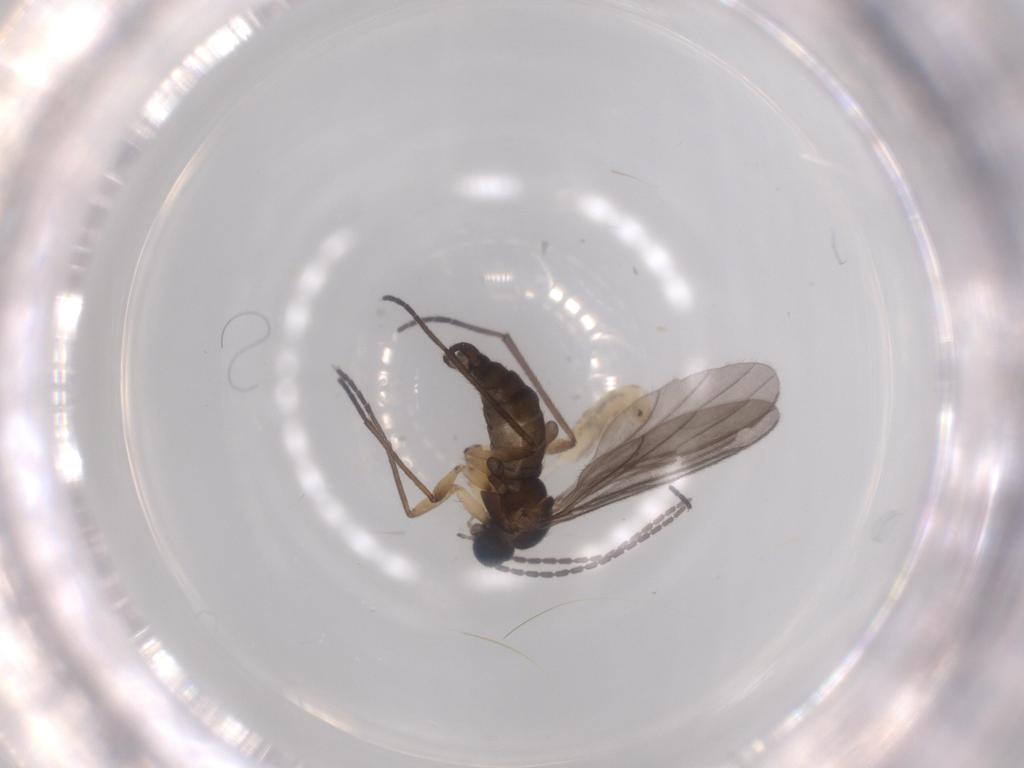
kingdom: Animalia
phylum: Arthropoda
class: Insecta
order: Diptera
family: Sciaridae
